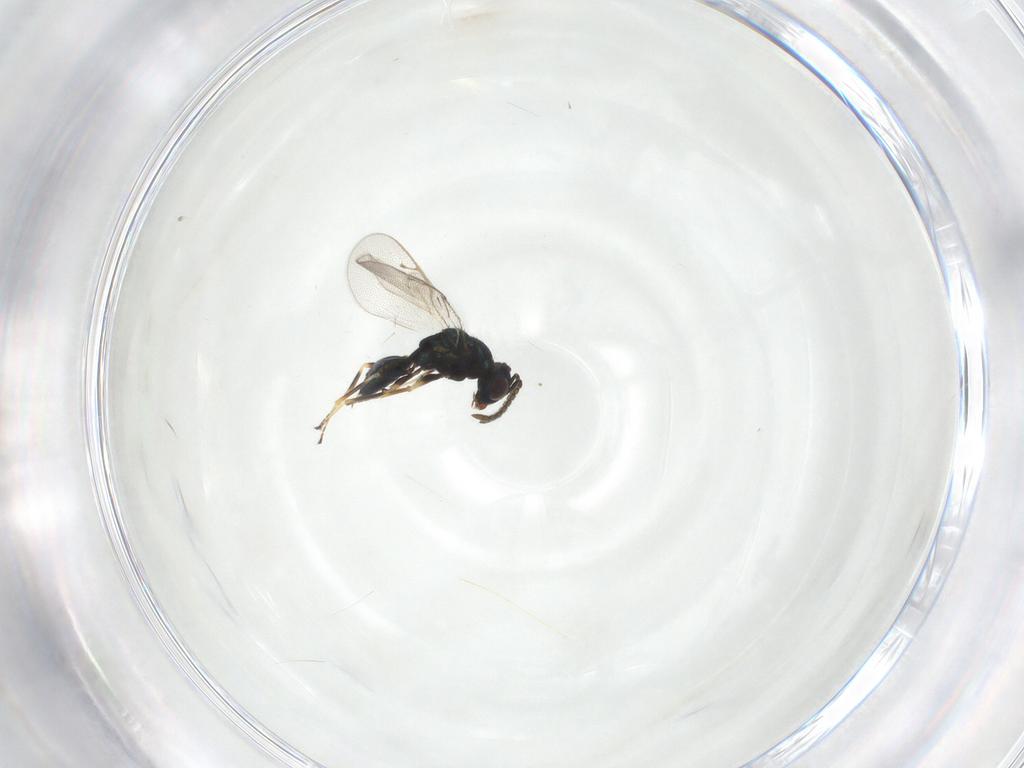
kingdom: Animalia
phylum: Arthropoda
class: Insecta
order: Hymenoptera
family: Pteromalidae
